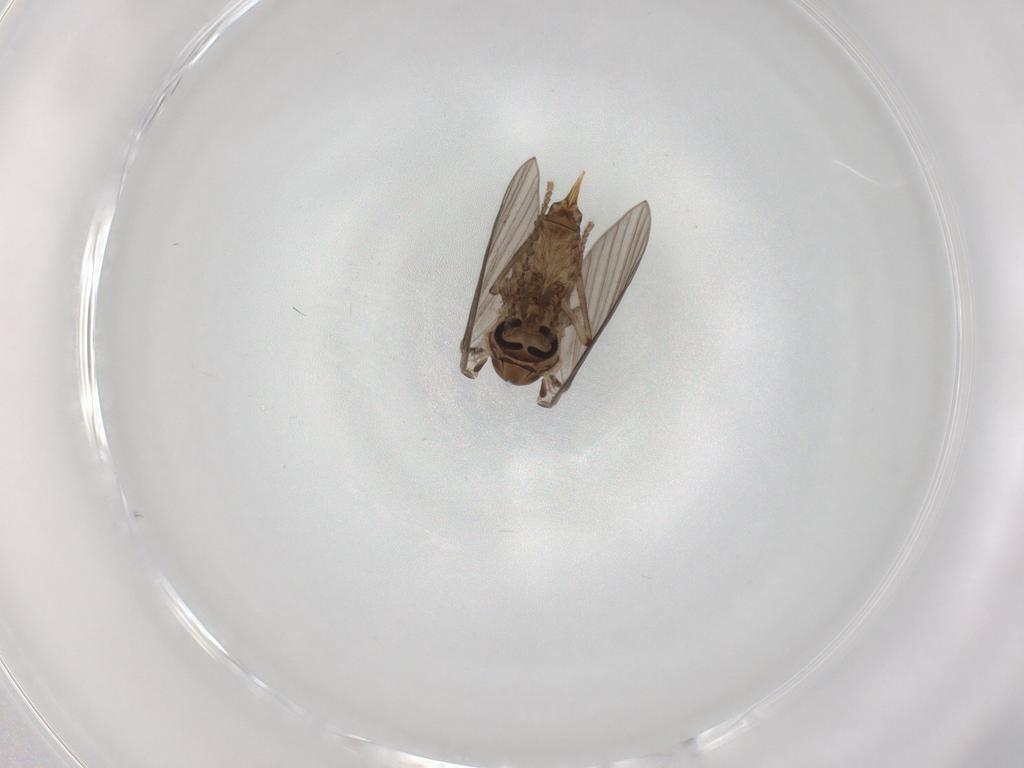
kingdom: Animalia
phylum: Arthropoda
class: Insecta
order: Diptera
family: Psychodidae
